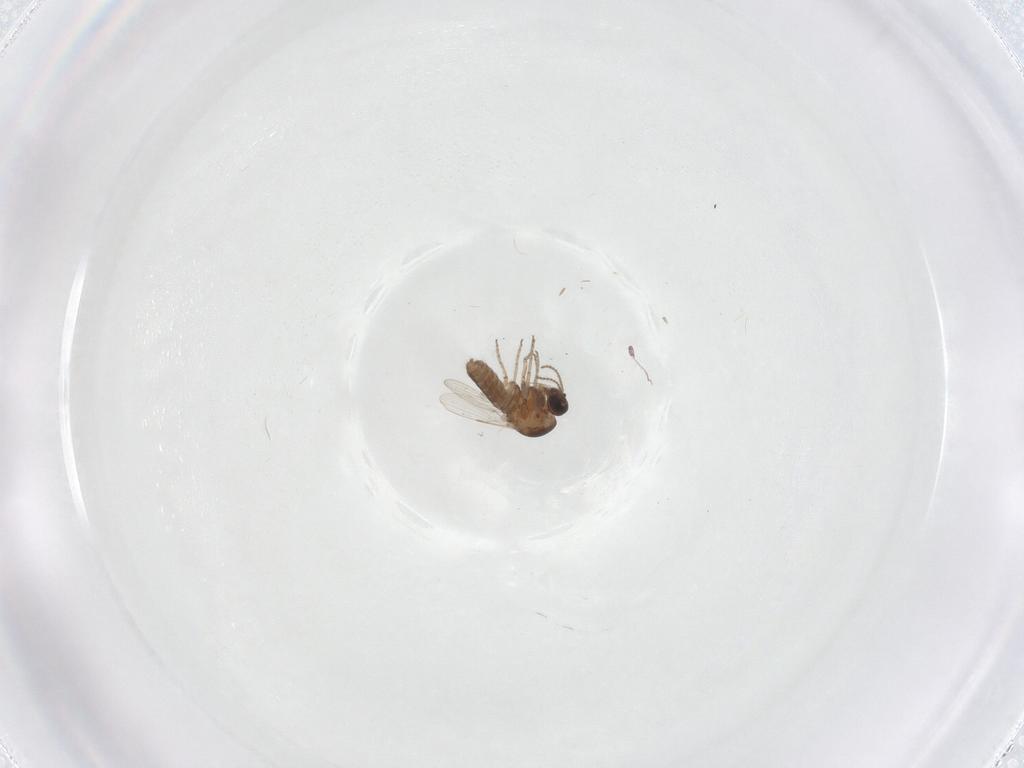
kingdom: Animalia
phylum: Arthropoda
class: Insecta
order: Diptera
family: Ceratopogonidae
